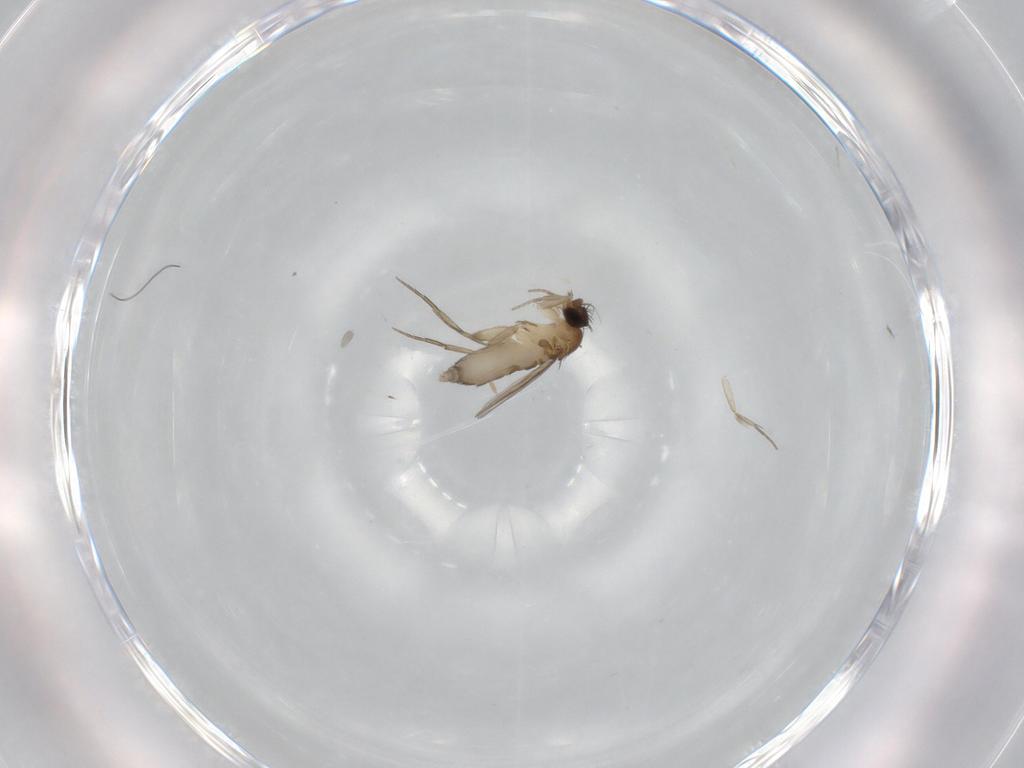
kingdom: Animalia
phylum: Arthropoda
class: Insecta
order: Diptera
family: Phoridae
